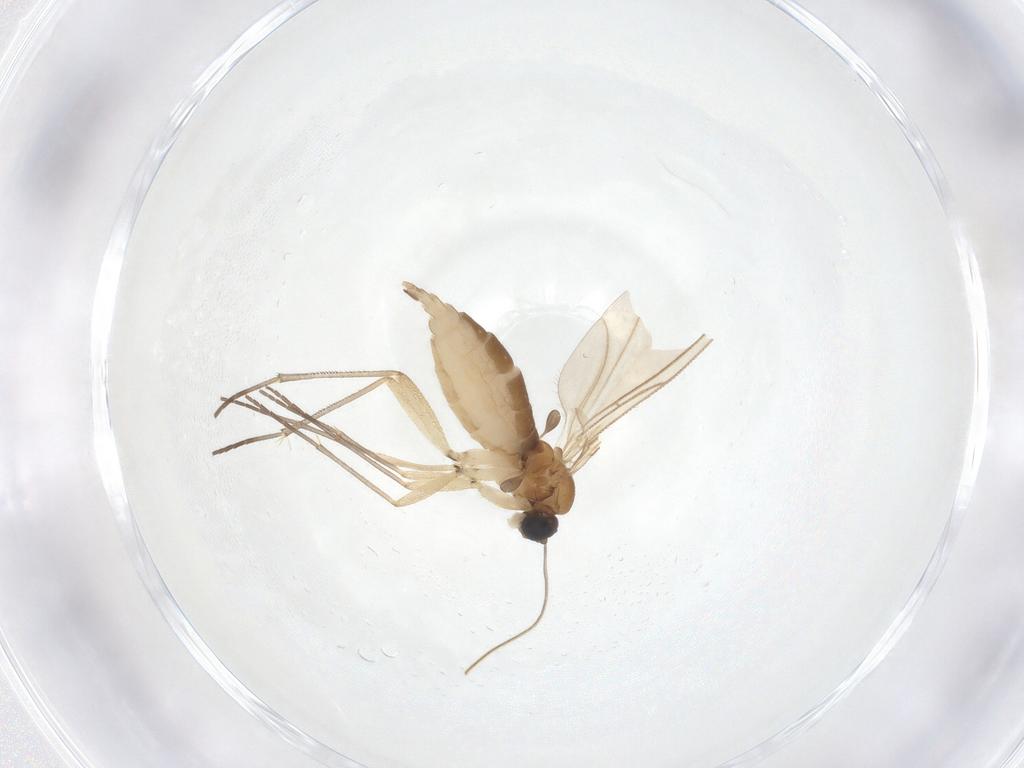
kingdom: Animalia
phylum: Arthropoda
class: Insecta
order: Diptera
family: Sciaridae
